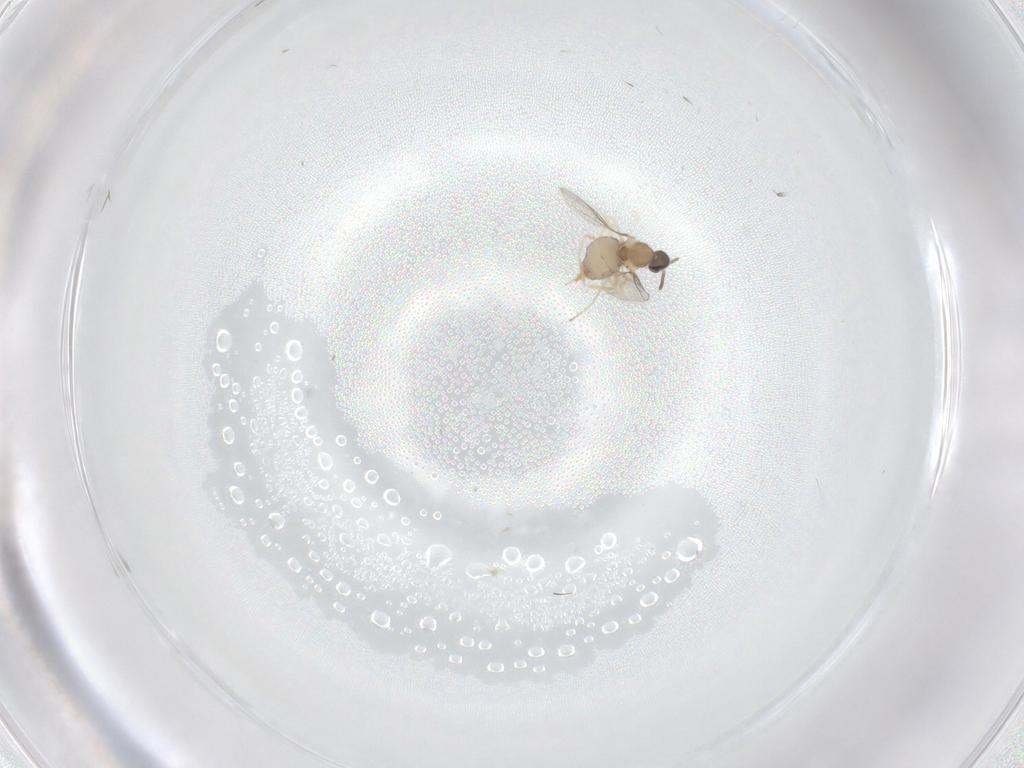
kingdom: Animalia
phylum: Arthropoda
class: Insecta
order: Diptera
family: Cecidomyiidae
